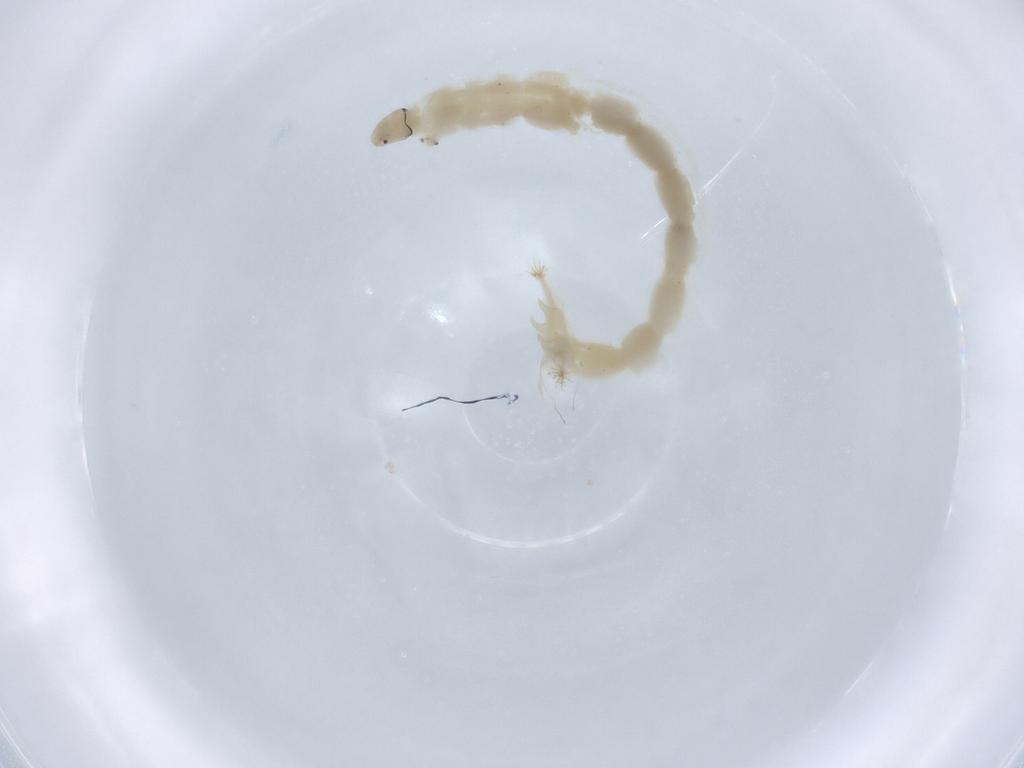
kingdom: Animalia
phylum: Arthropoda
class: Insecta
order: Diptera
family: Chironomidae
